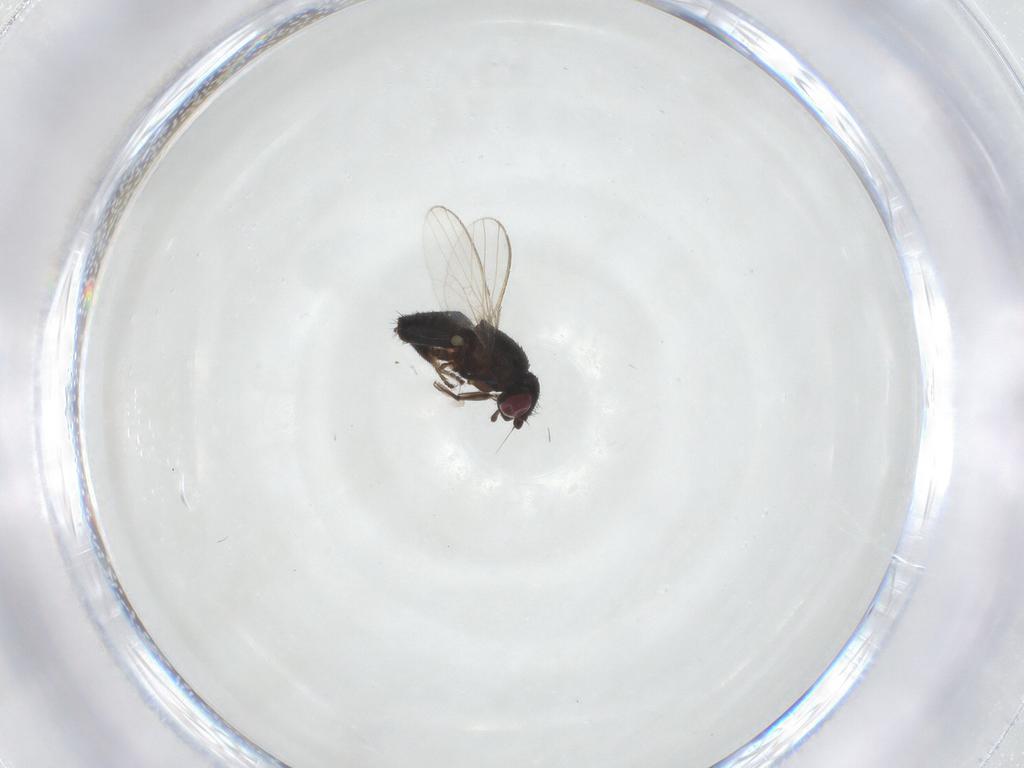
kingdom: Animalia
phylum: Arthropoda
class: Insecta
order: Diptera
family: Milichiidae
